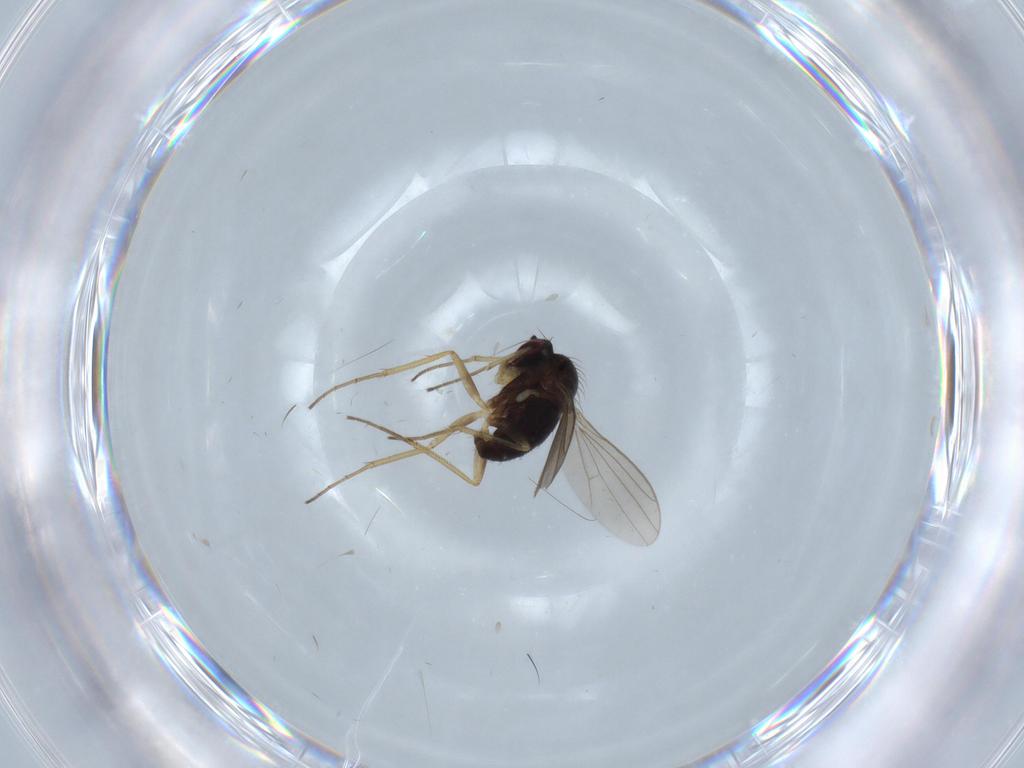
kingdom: Animalia
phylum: Arthropoda
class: Insecta
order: Diptera
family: Dolichopodidae
